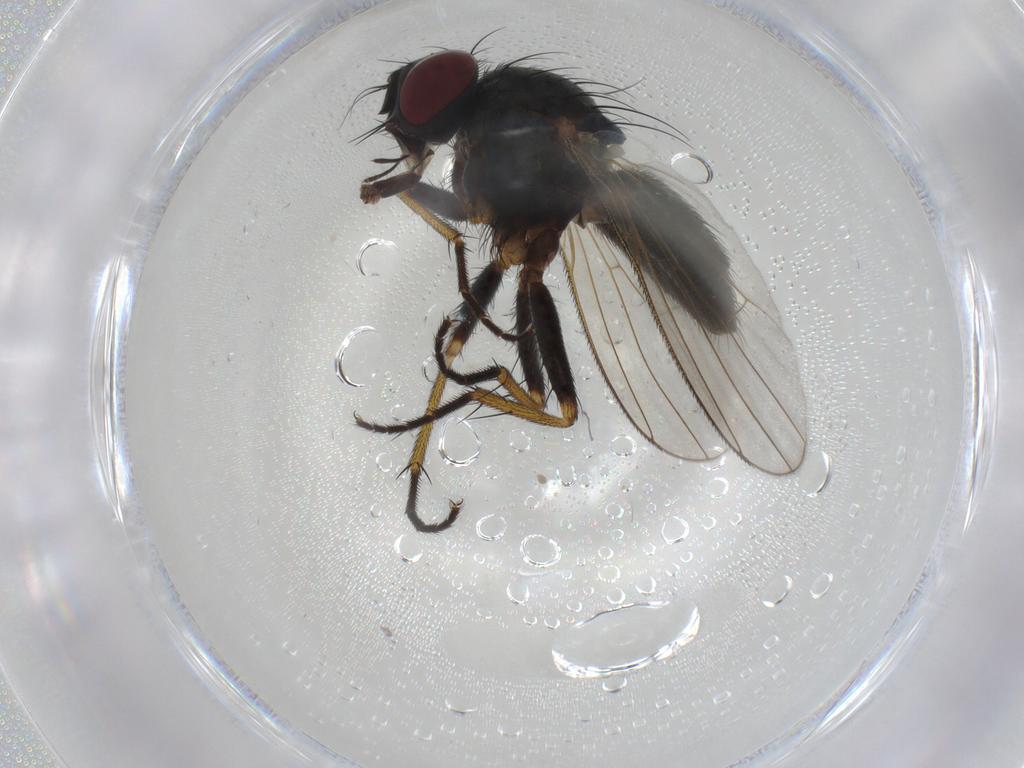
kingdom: Animalia
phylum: Arthropoda
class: Insecta
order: Diptera
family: Muscidae
